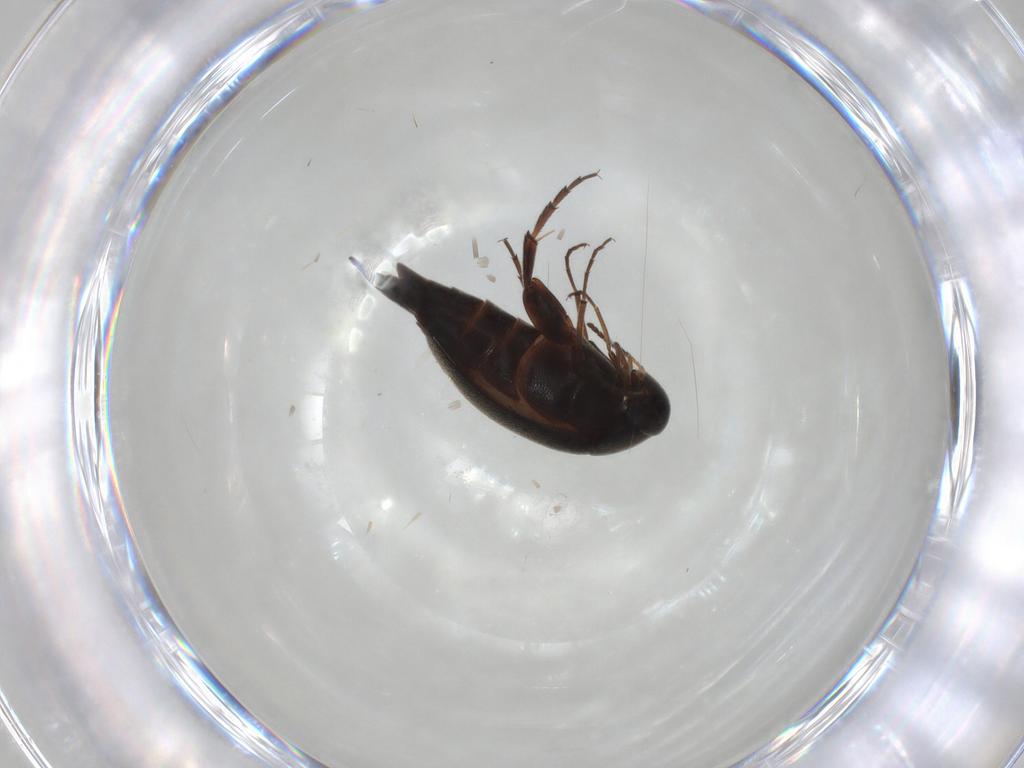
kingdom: Animalia
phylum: Arthropoda
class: Insecta
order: Coleoptera
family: Mordellidae
